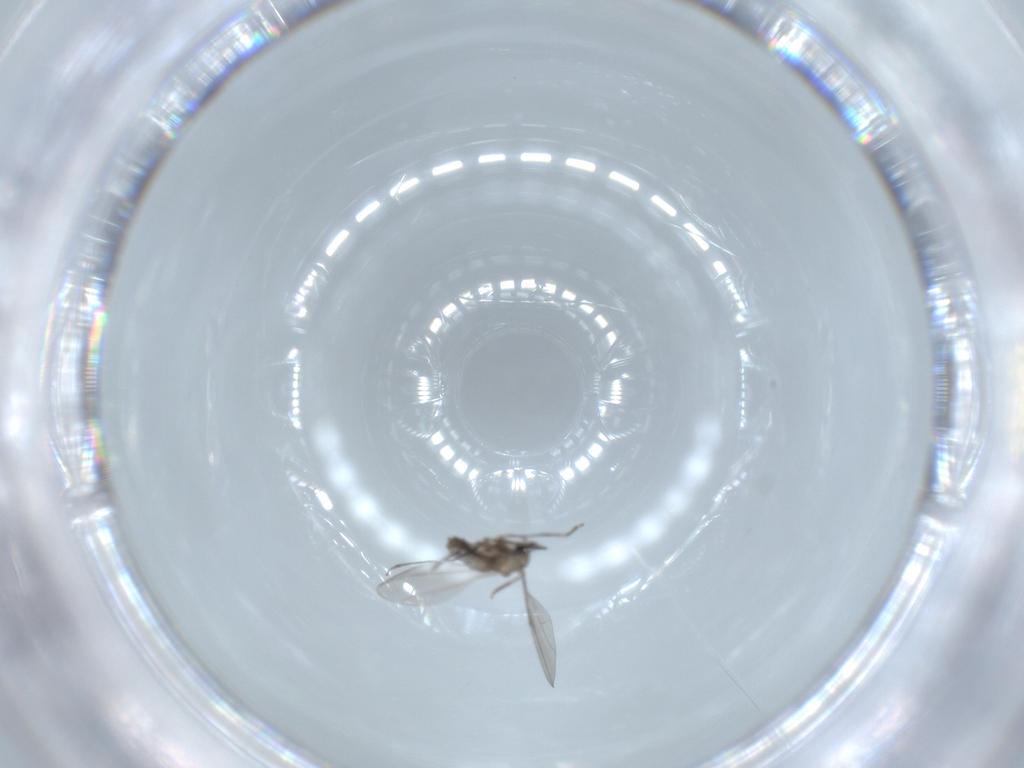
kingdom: Animalia
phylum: Arthropoda
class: Insecta
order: Diptera
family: Cecidomyiidae
